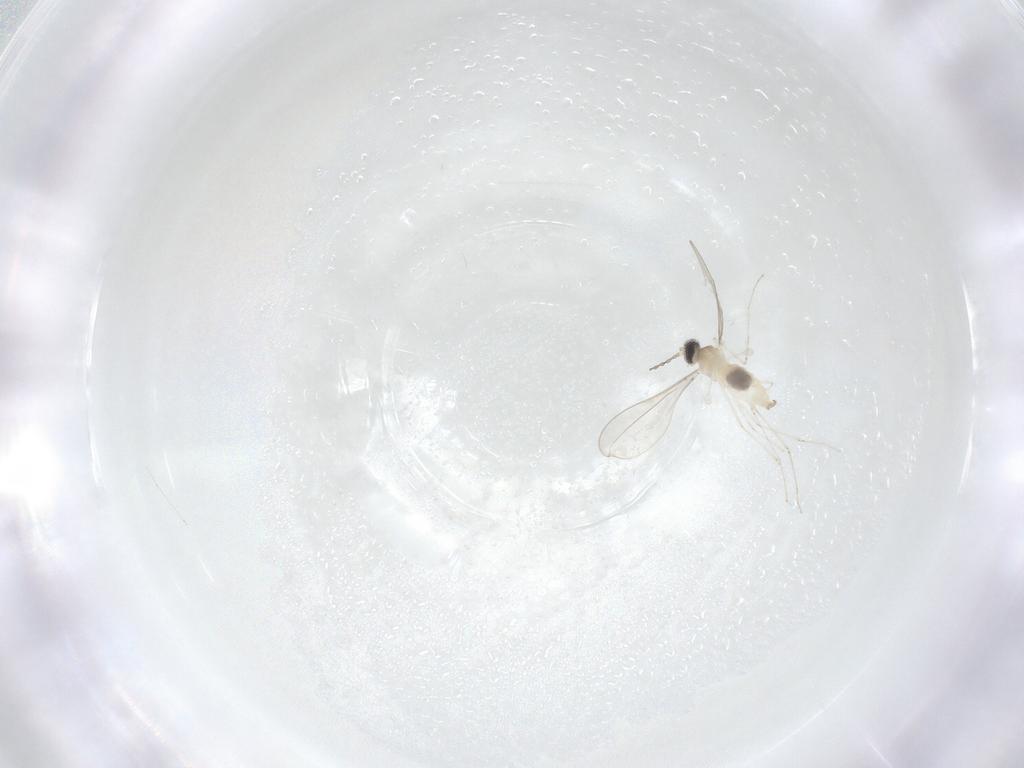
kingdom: Animalia
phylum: Arthropoda
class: Insecta
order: Diptera
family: Cecidomyiidae
